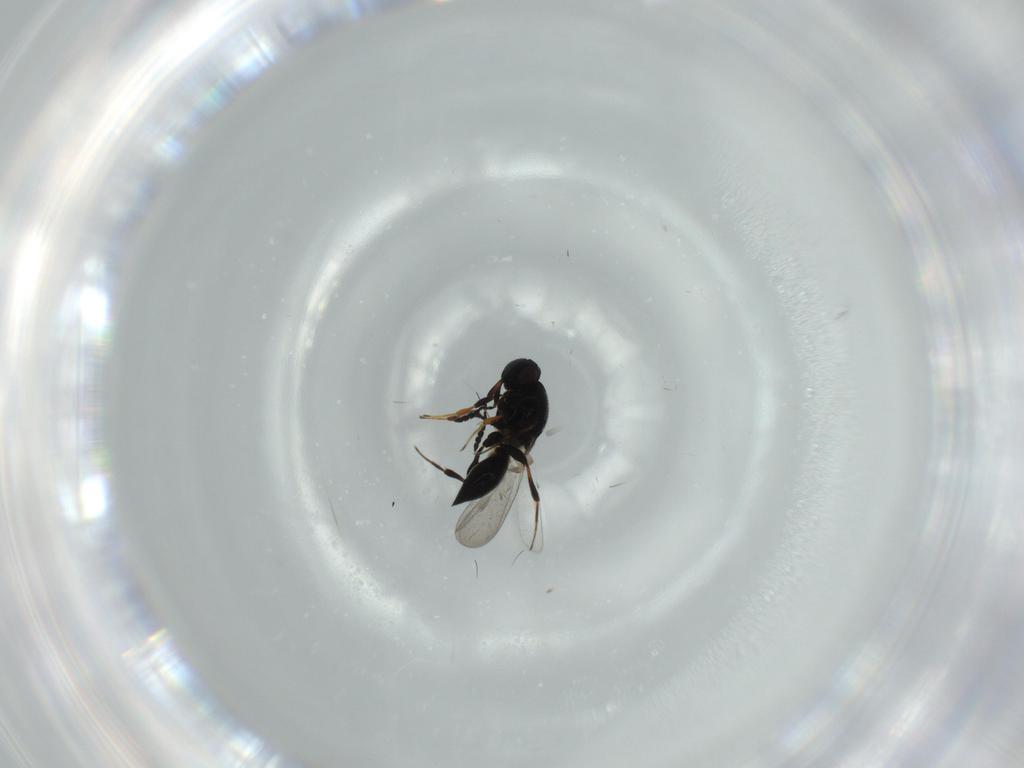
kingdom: Animalia
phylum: Arthropoda
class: Insecta
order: Hymenoptera
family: Platygastridae
